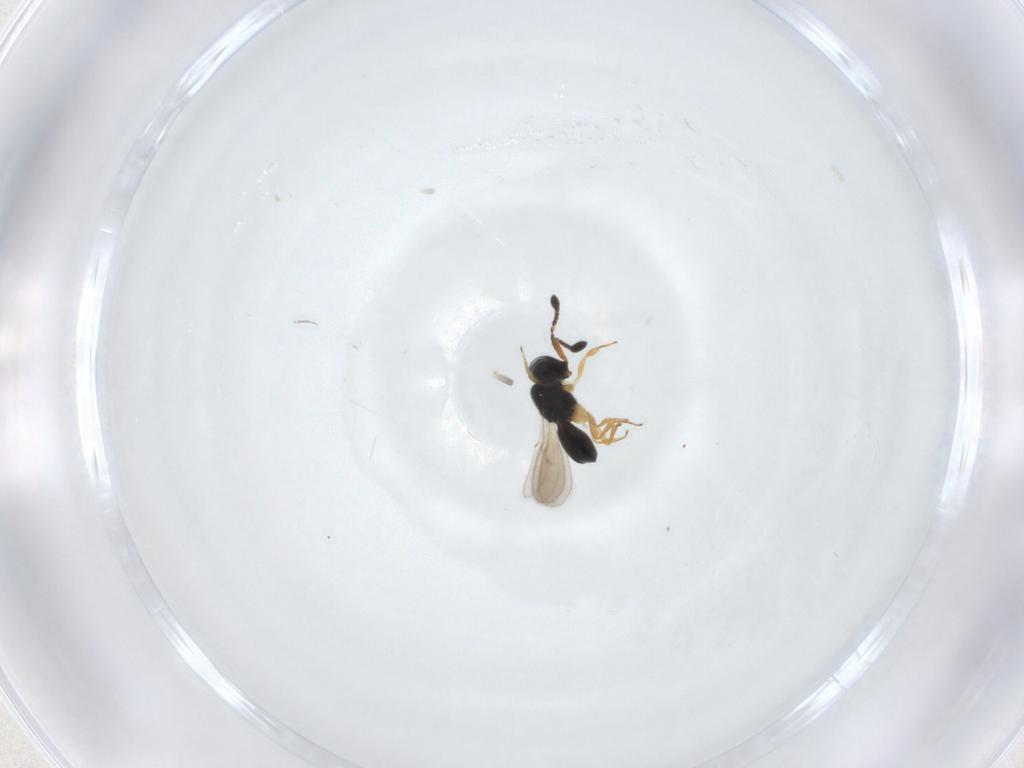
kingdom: Animalia
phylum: Arthropoda
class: Insecta
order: Hymenoptera
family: Scelionidae
